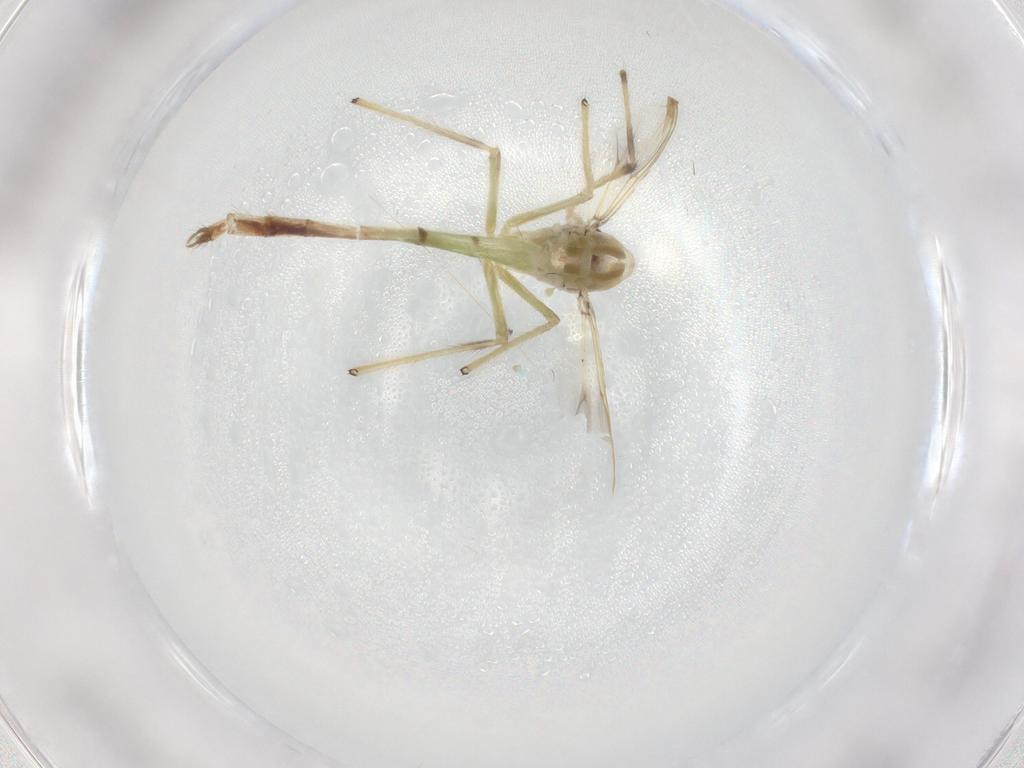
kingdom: Animalia
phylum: Arthropoda
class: Insecta
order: Diptera
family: Chironomidae
